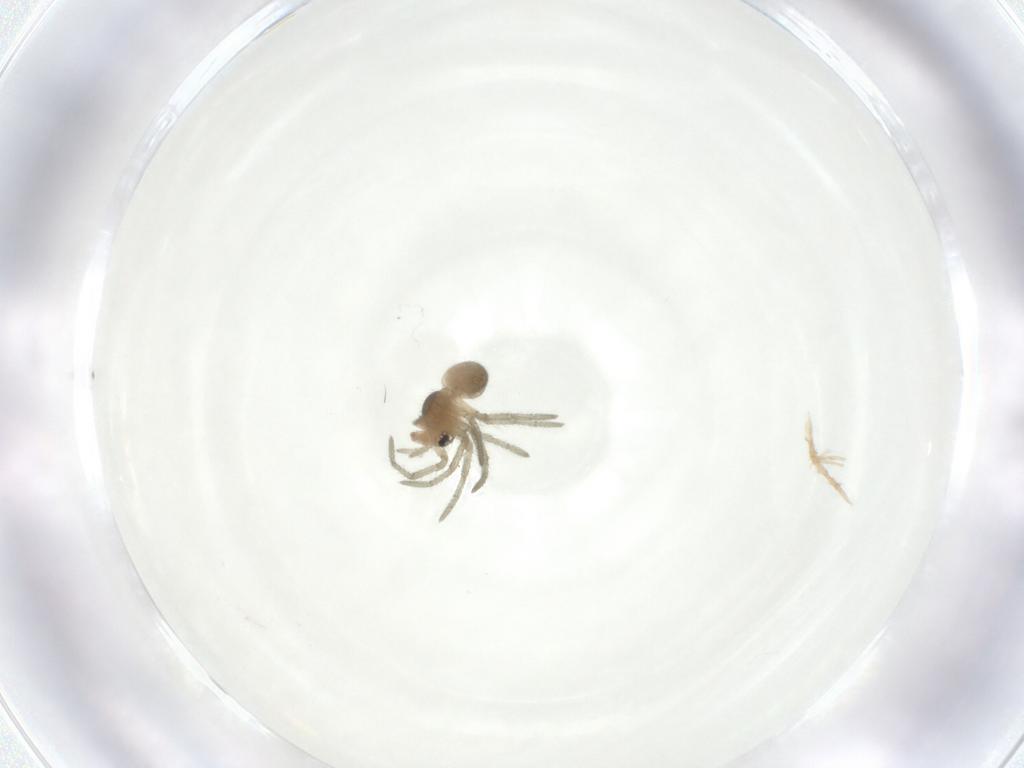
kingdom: Animalia
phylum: Arthropoda
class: Arachnida
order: Araneae
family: Tetragnathidae
